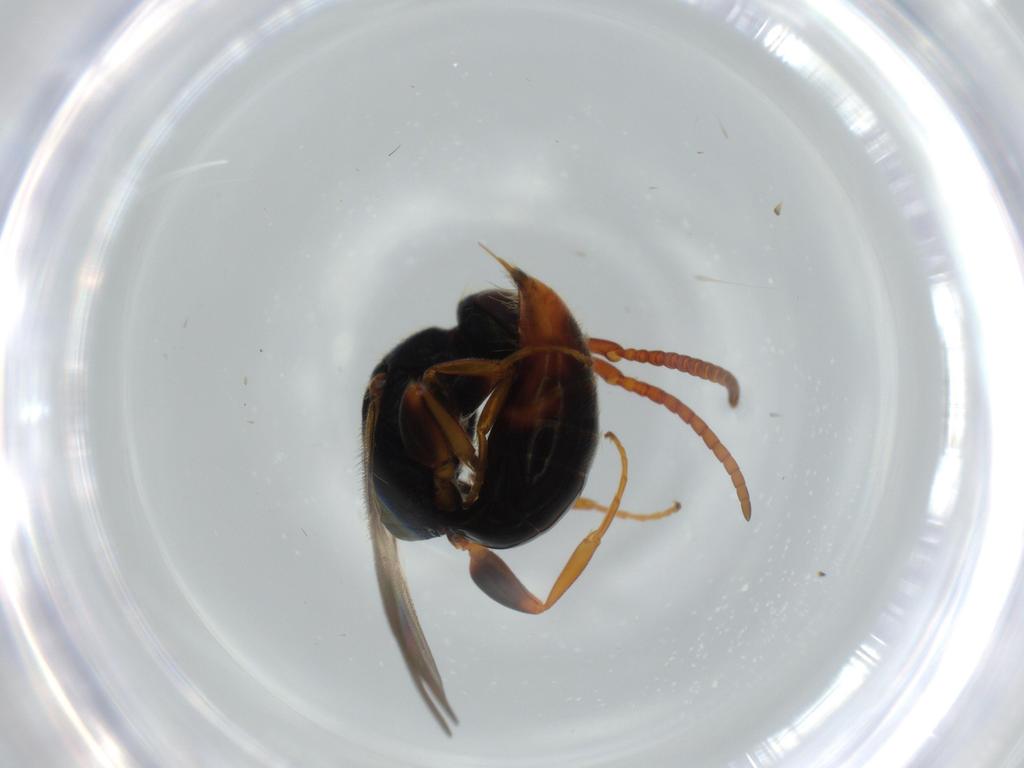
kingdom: Animalia
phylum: Arthropoda
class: Insecta
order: Hymenoptera
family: Bethylidae
